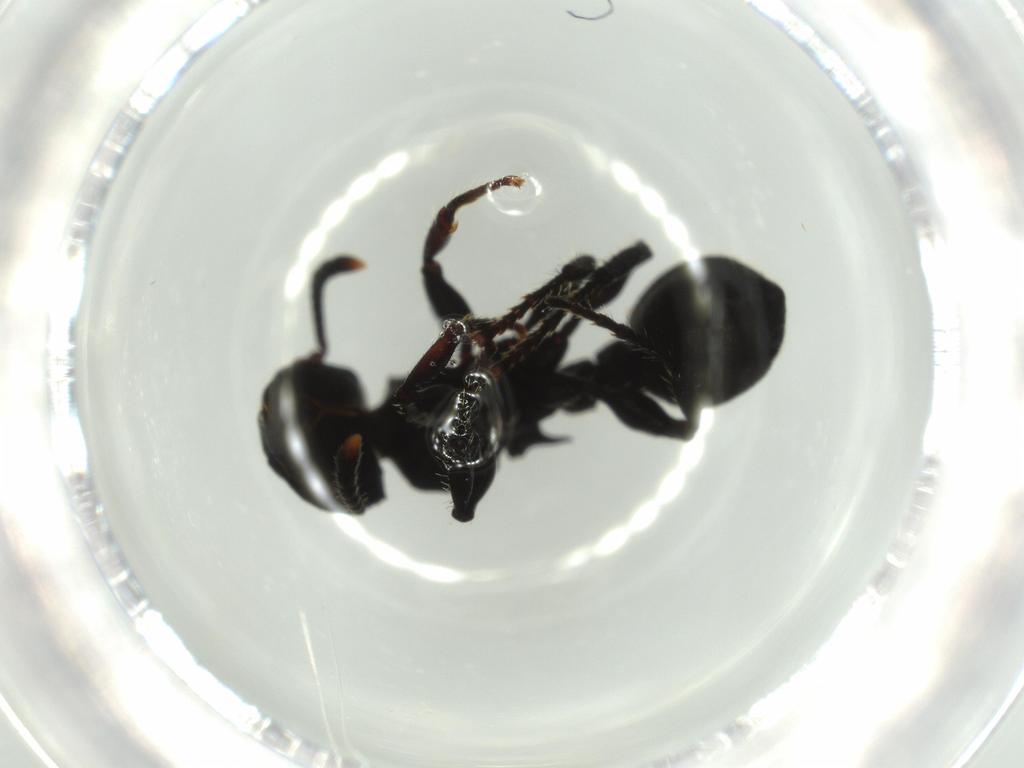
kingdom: Animalia
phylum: Arthropoda
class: Insecta
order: Hymenoptera
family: Formicidae
